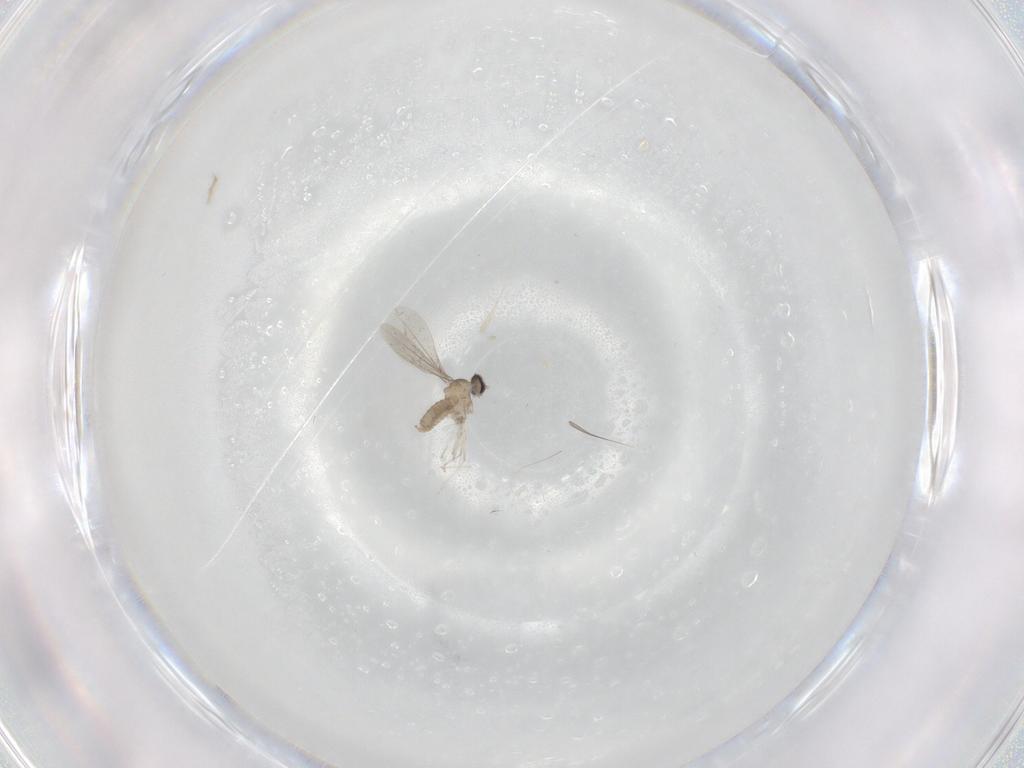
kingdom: Animalia
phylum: Arthropoda
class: Insecta
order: Diptera
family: Cecidomyiidae
